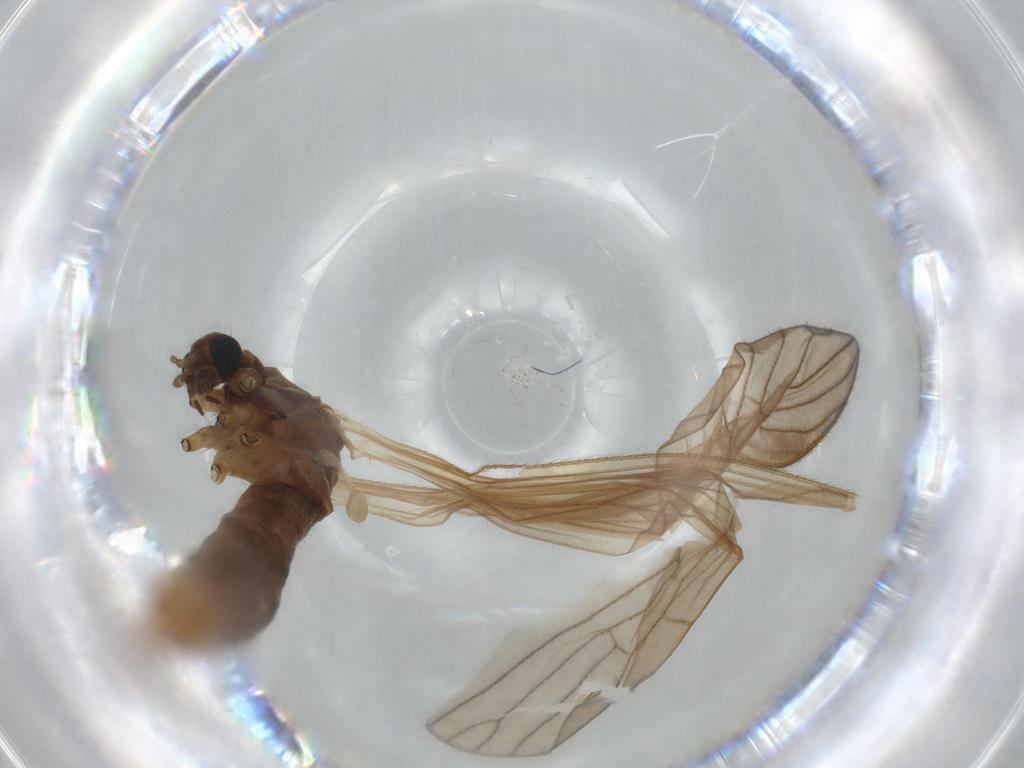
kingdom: Animalia
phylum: Arthropoda
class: Insecta
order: Diptera
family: Limoniidae
